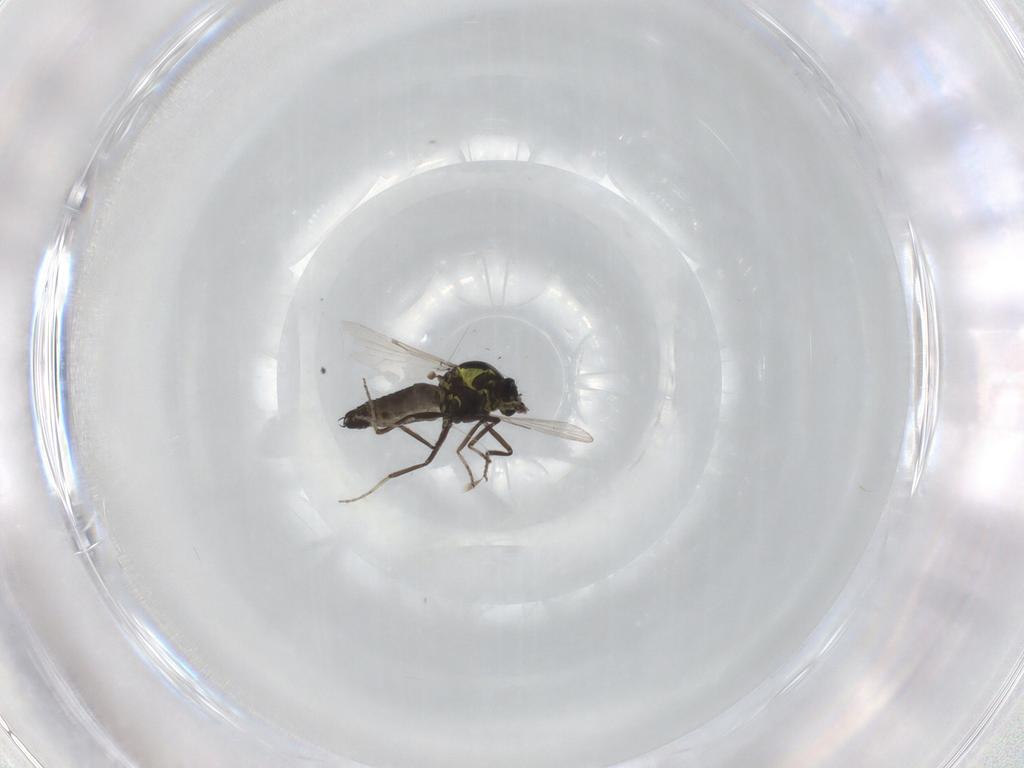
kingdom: Animalia
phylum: Arthropoda
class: Insecta
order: Diptera
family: Ceratopogonidae
